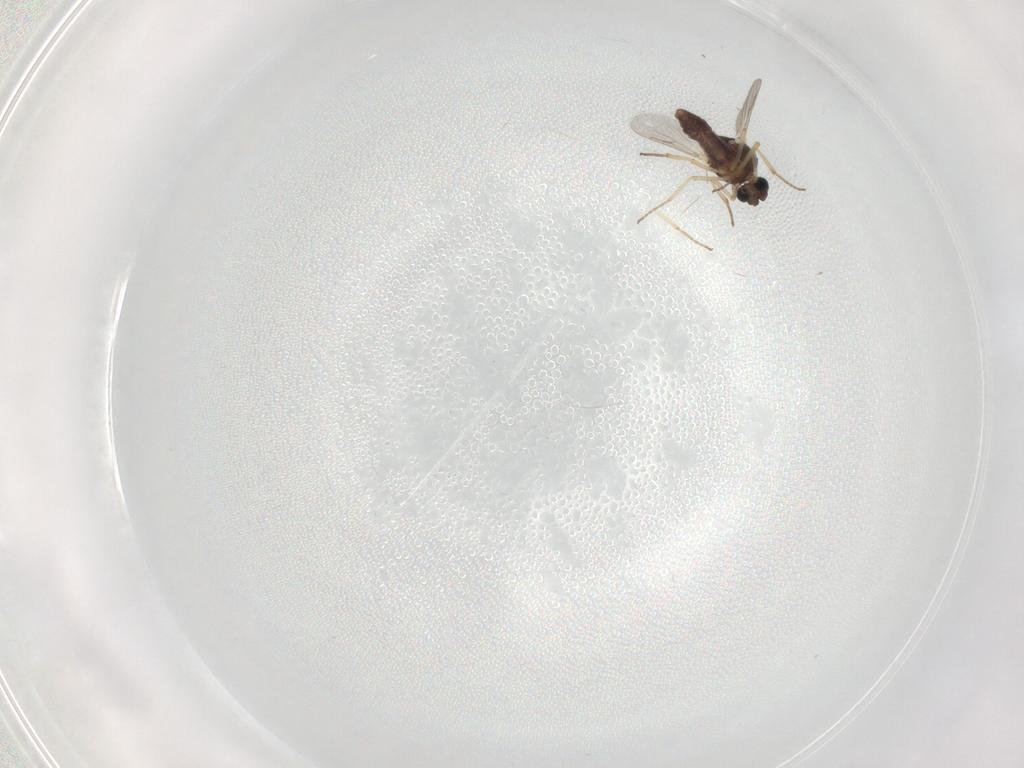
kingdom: Animalia
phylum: Arthropoda
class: Insecta
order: Diptera
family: Ceratopogonidae
